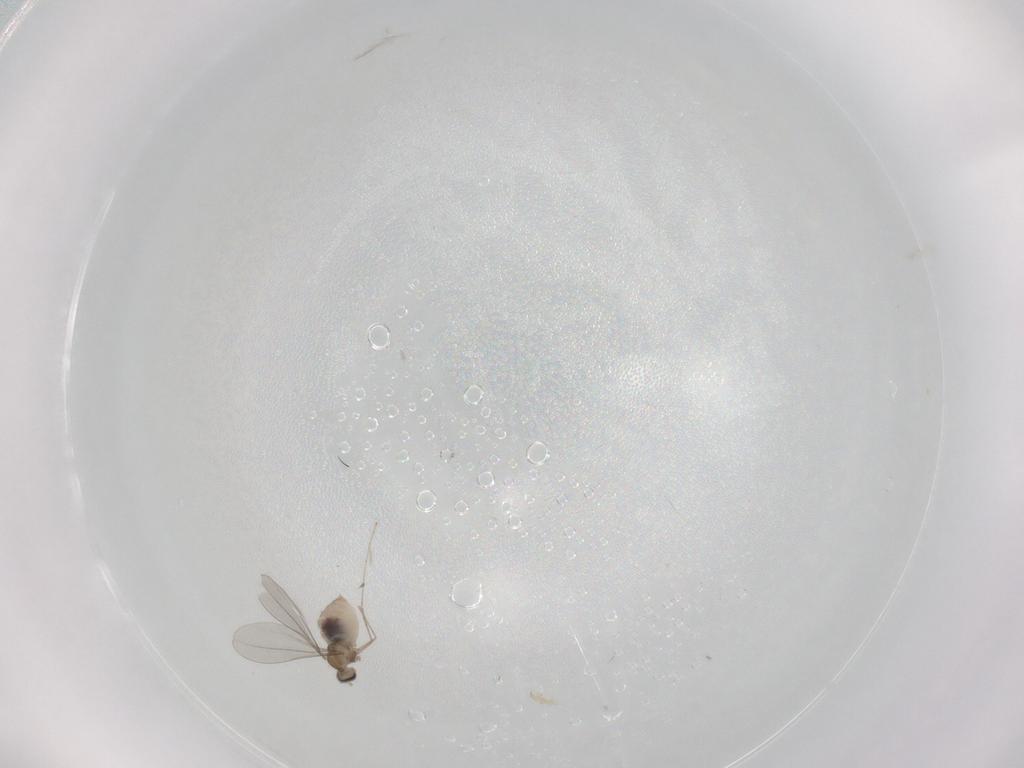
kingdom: Animalia
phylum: Arthropoda
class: Insecta
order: Diptera
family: Cecidomyiidae
